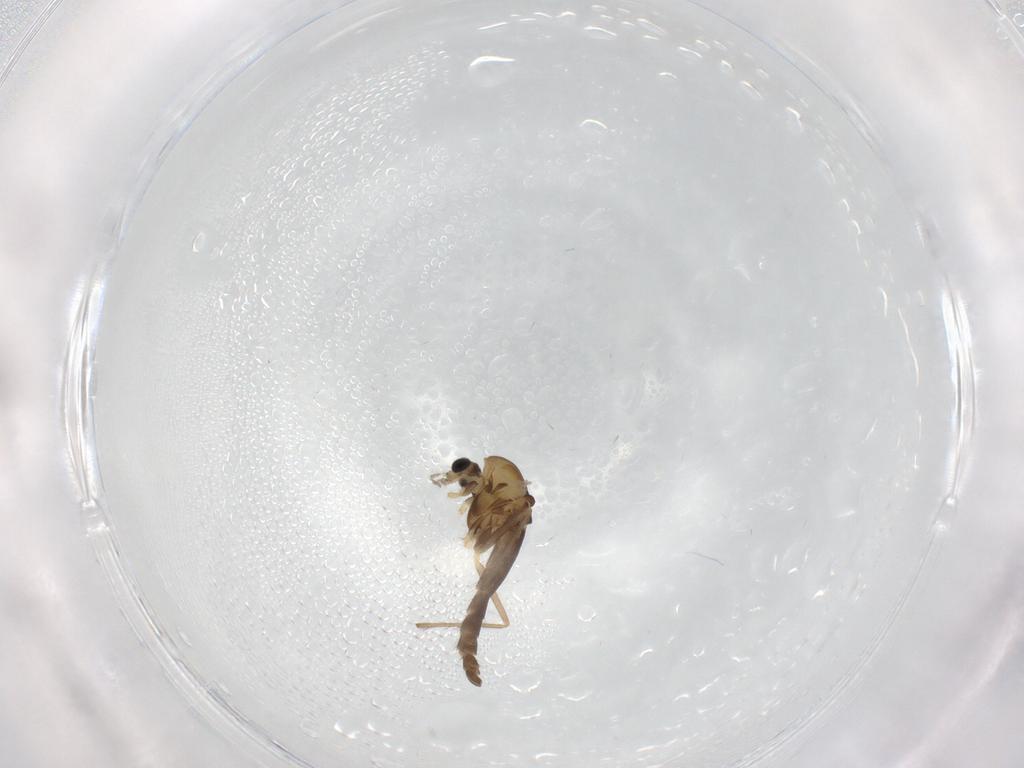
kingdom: Animalia
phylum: Arthropoda
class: Insecta
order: Diptera
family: Chironomidae
